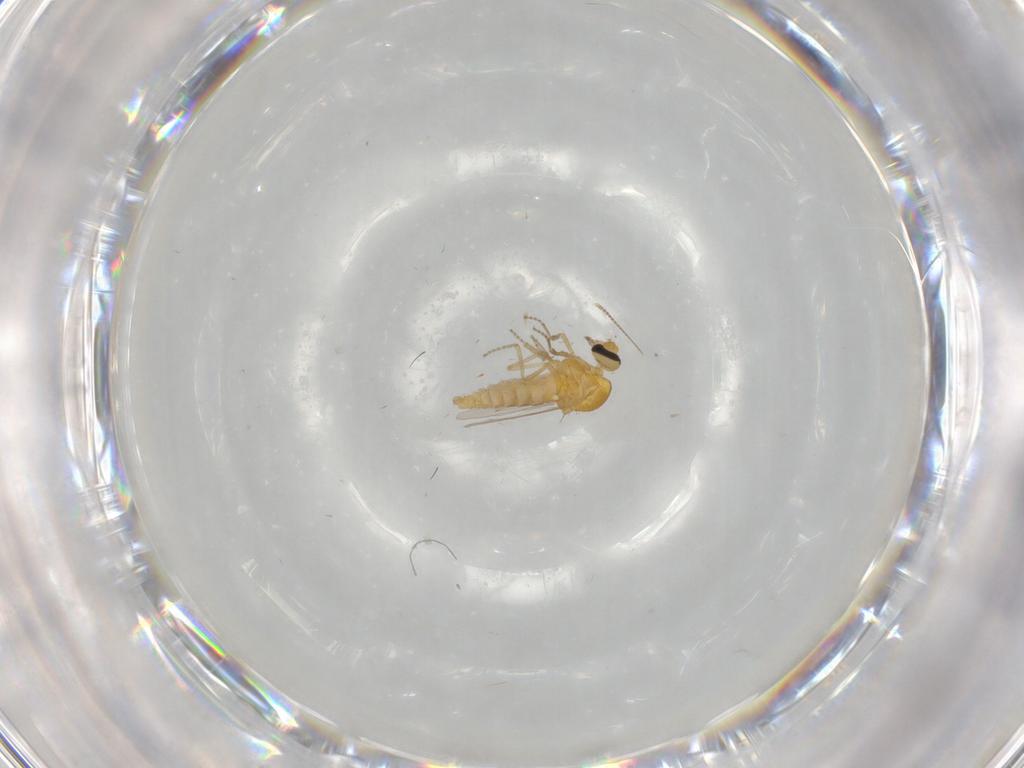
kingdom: Animalia
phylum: Arthropoda
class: Insecta
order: Diptera
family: Ceratopogonidae
